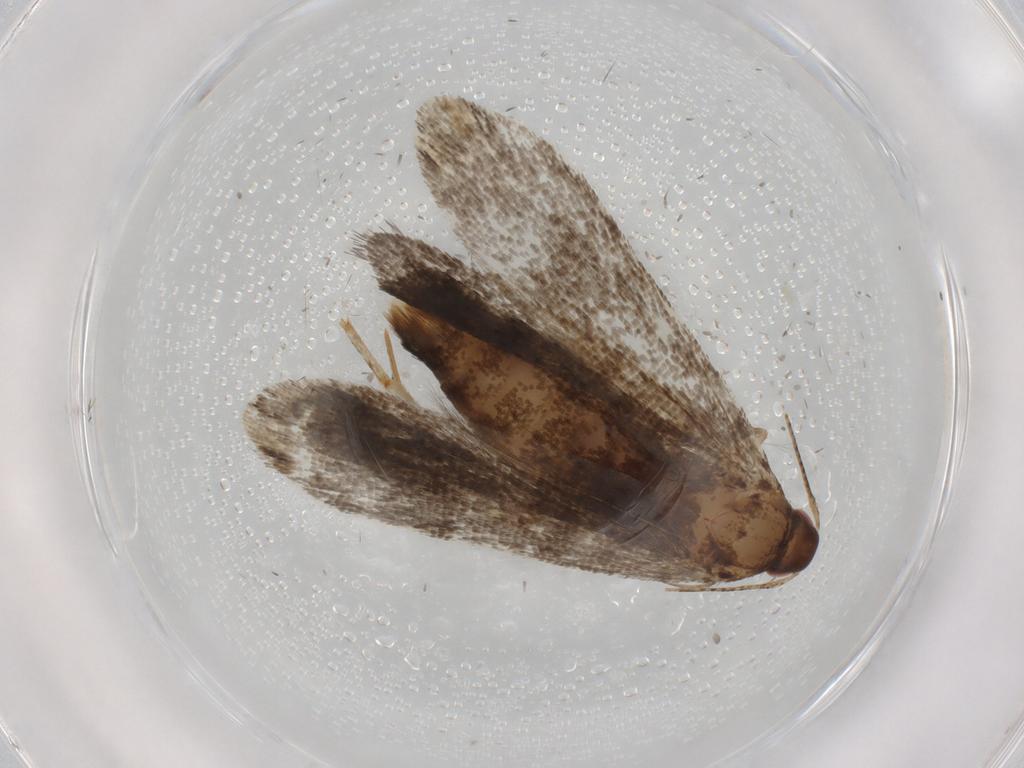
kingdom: Animalia
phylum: Arthropoda
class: Insecta
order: Lepidoptera
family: Gelechiidae
